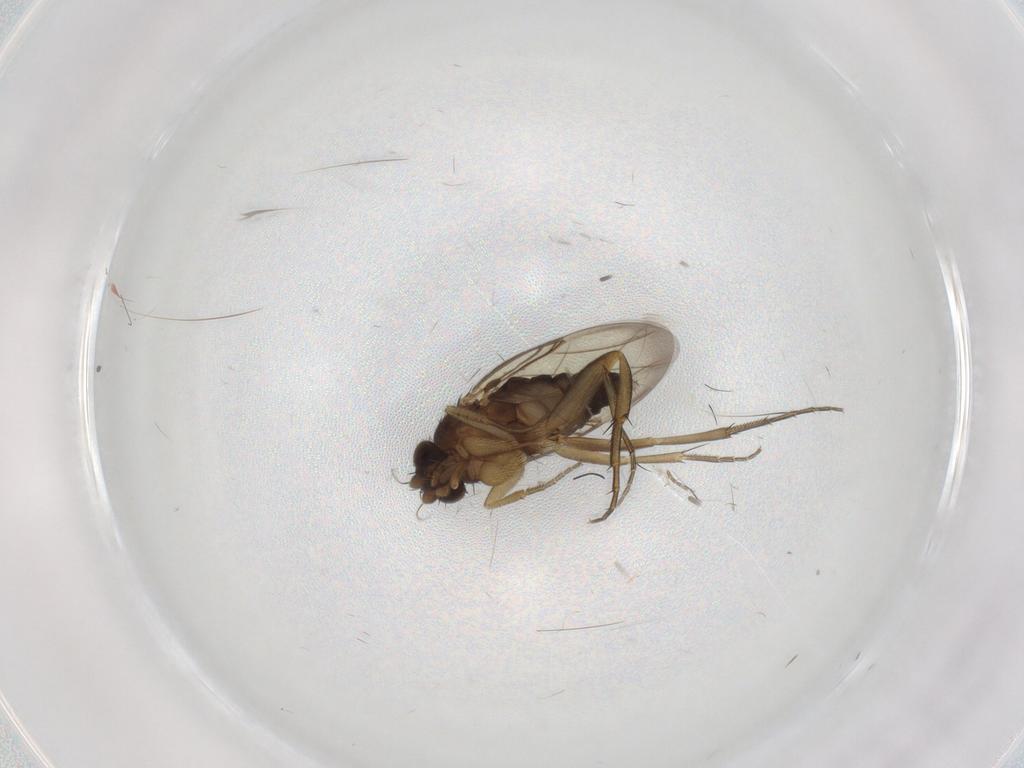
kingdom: Animalia
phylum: Arthropoda
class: Insecta
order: Diptera
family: Phoridae
